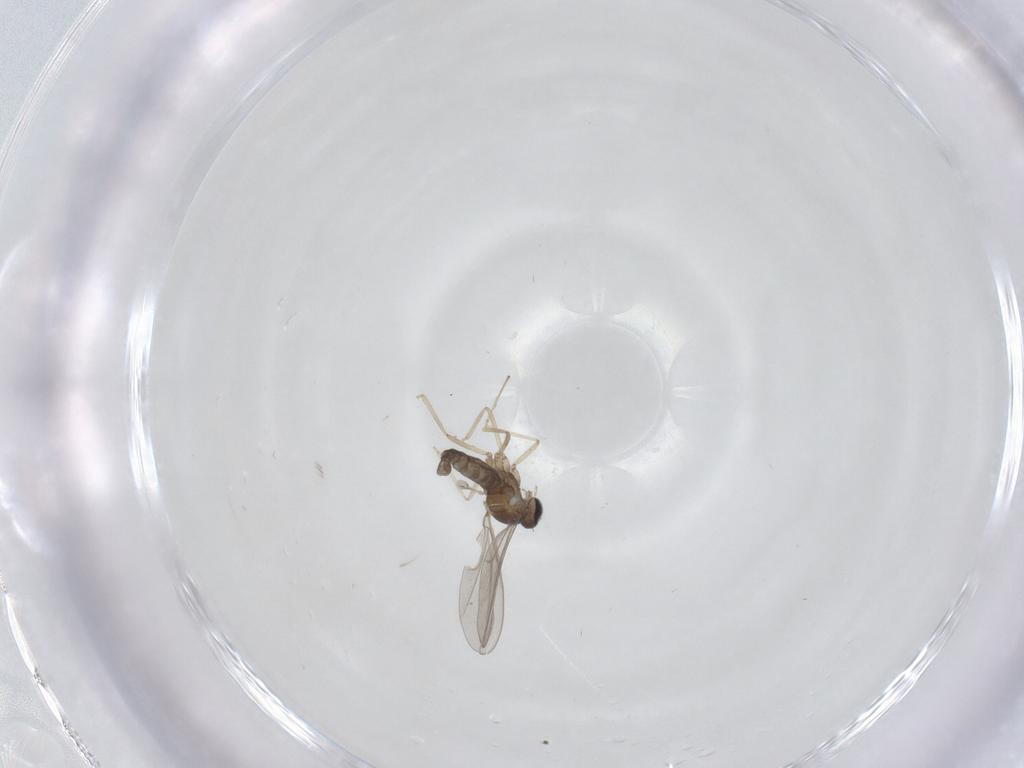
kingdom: Animalia
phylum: Arthropoda
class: Insecta
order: Diptera
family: Cecidomyiidae
